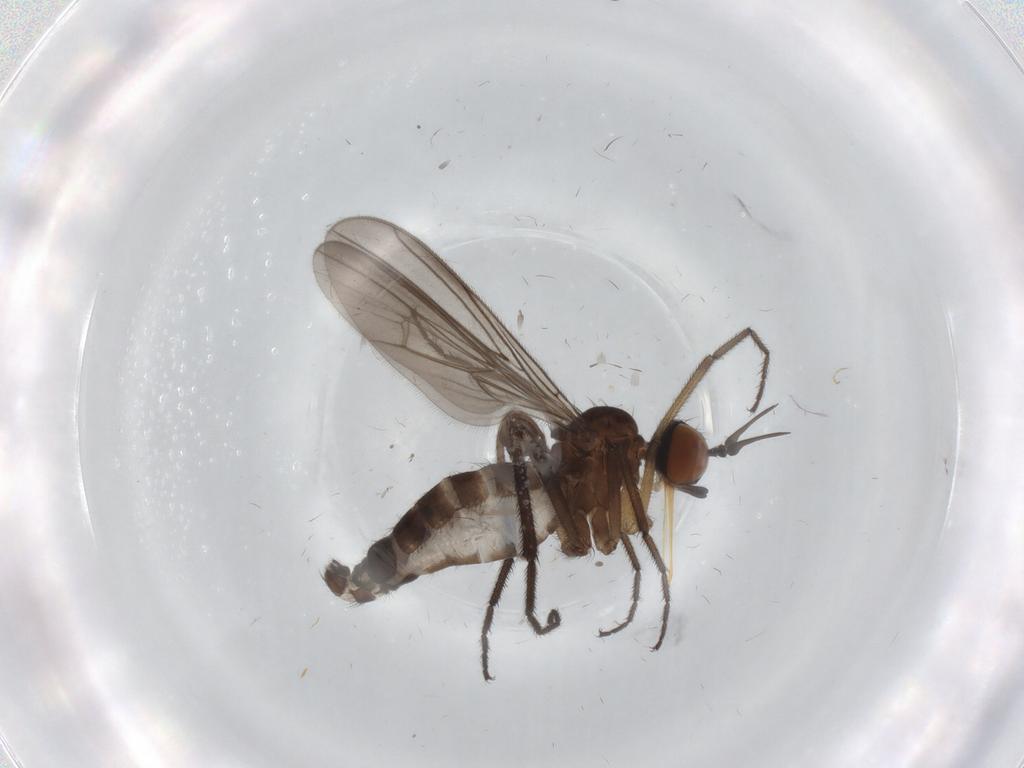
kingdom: Animalia
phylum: Arthropoda
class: Insecta
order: Diptera
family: Empididae
